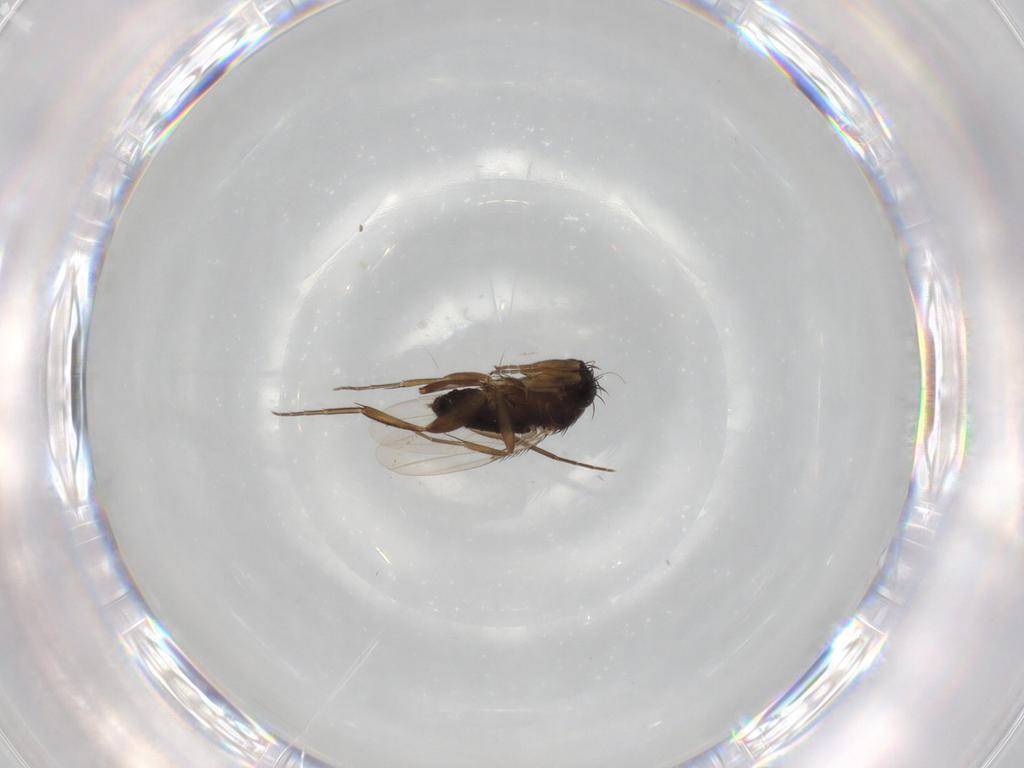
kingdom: Animalia
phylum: Arthropoda
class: Insecta
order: Diptera
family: Phoridae
